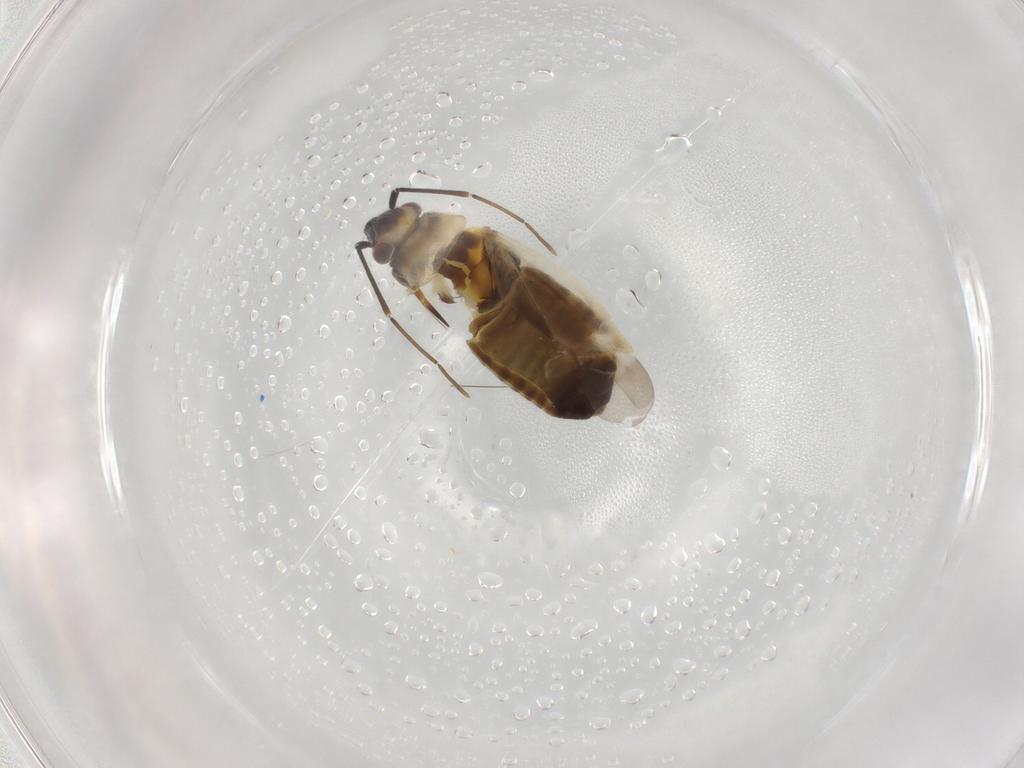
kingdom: Animalia
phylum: Arthropoda
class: Insecta
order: Hemiptera
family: Miridae
